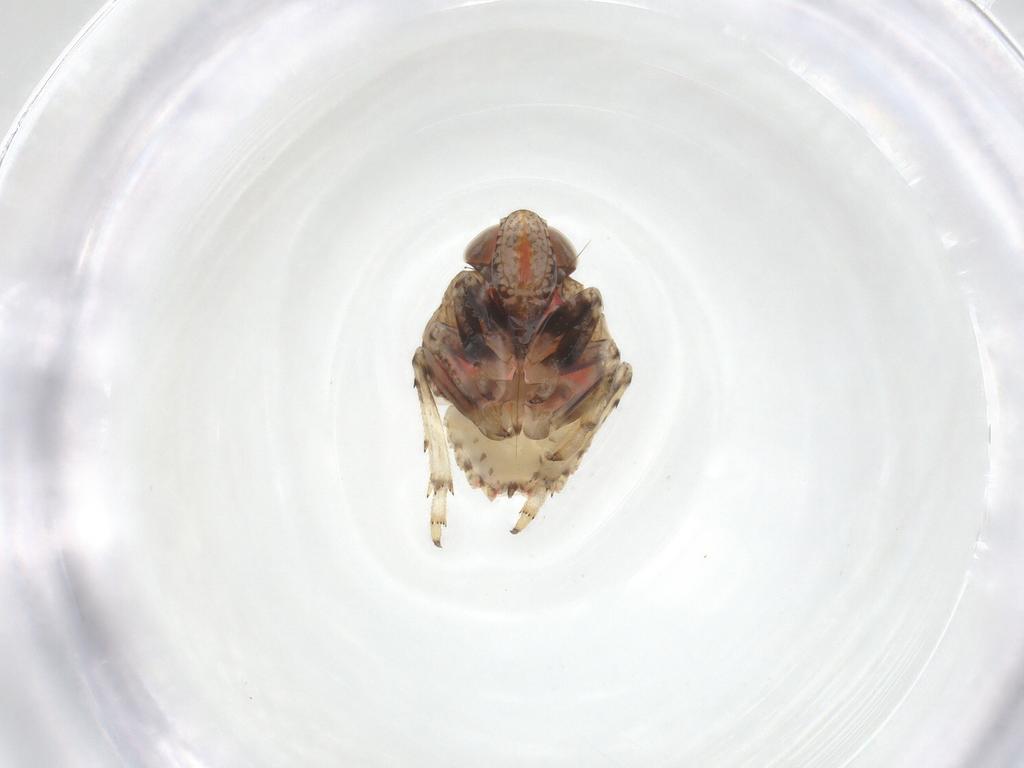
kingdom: Animalia
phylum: Arthropoda
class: Insecta
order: Hemiptera
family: Issidae
